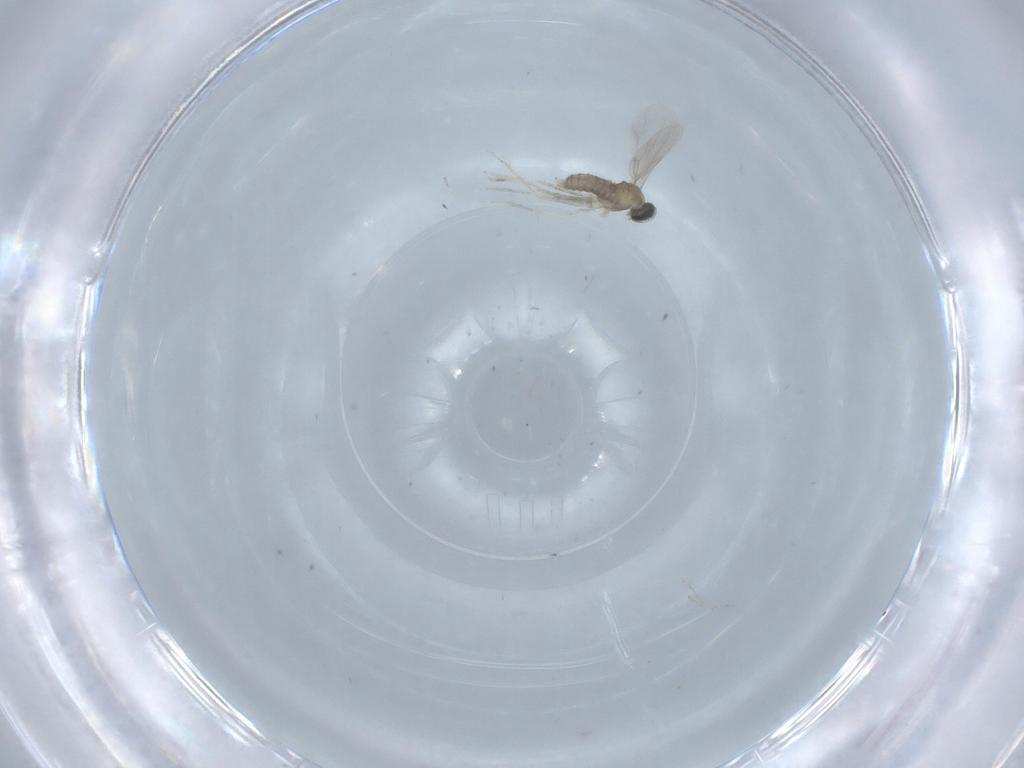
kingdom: Animalia
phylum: Arthropoda
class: Insecta
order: Diptera
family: Cecidomyiidae
